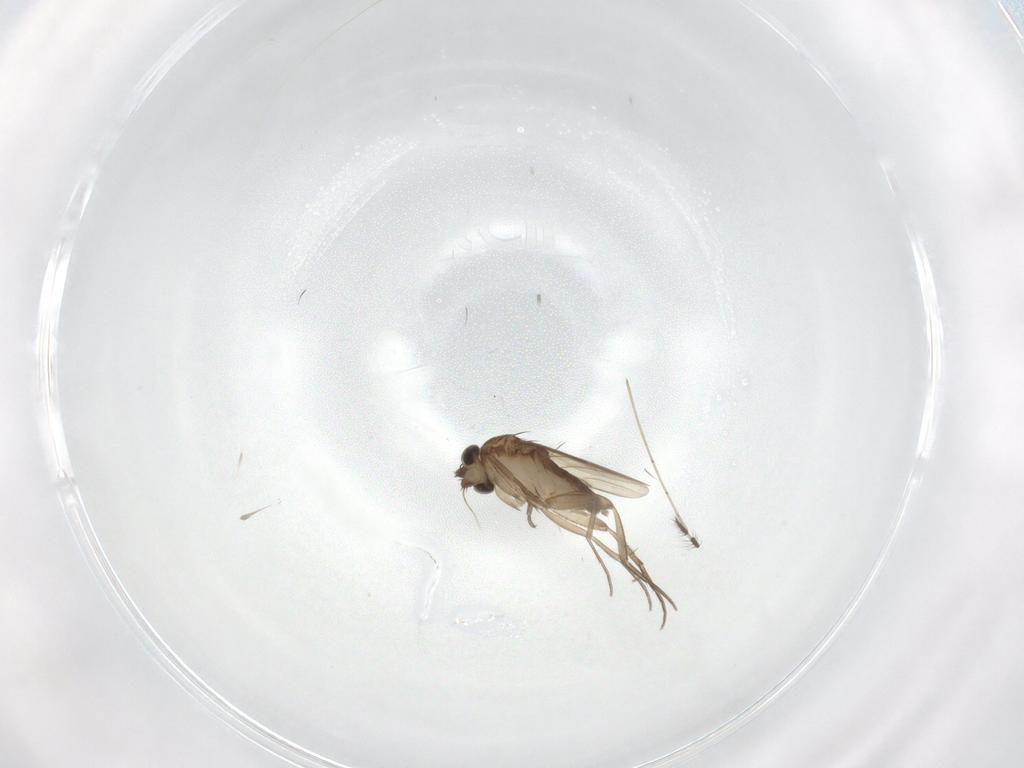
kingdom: Animalia
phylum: Arthropoda
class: Insecta
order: Diptera
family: Phoridae
